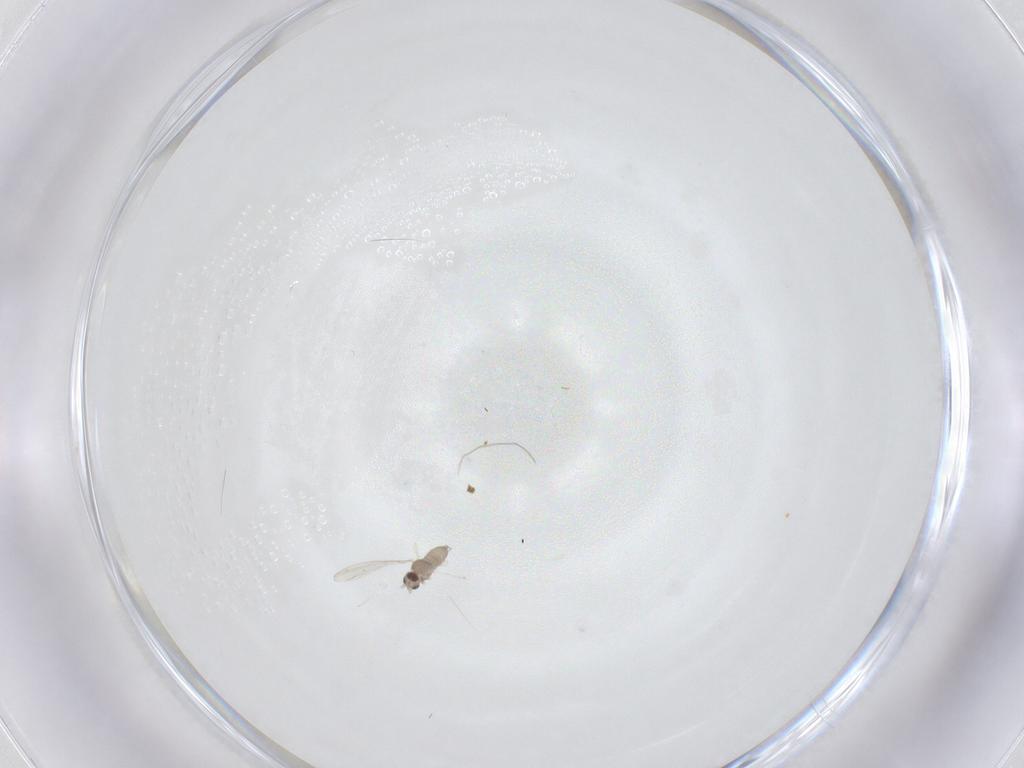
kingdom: Animalia
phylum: Arthropoda
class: Insecta
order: Diptera
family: Cecidomyiidae
